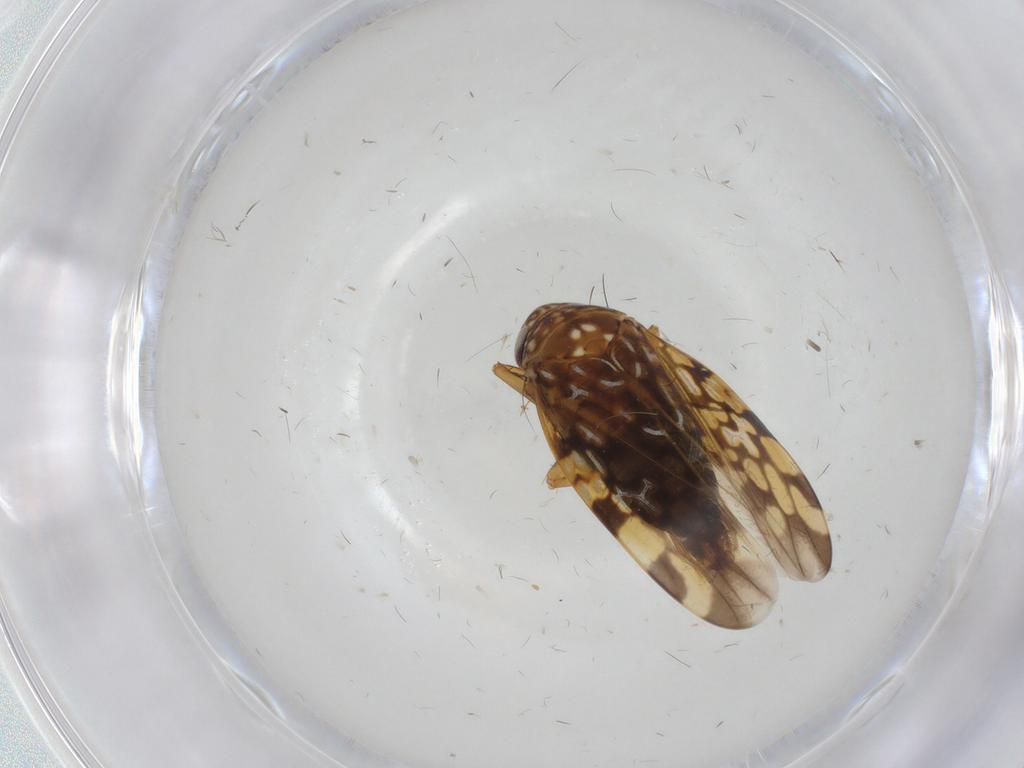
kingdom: Animalia
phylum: Arthropoda
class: Insecta
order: Hemiptera
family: Cicadellidae
